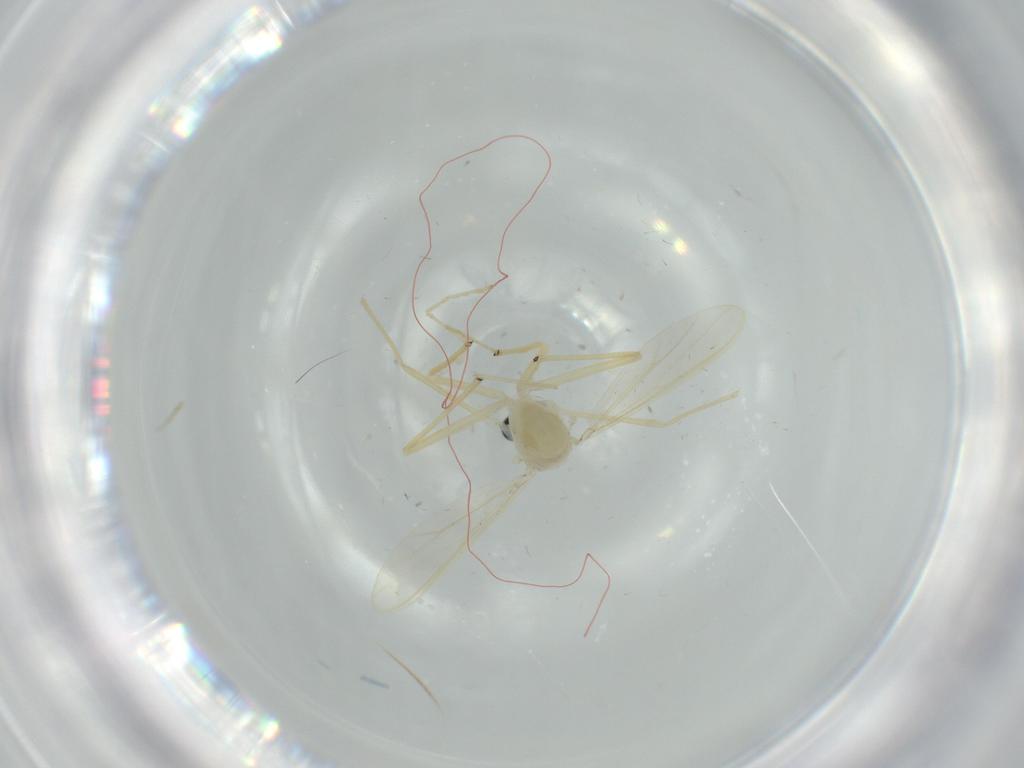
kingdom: Animalia
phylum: Arthropoda
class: Insecta
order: Diptera
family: Chironomidae
